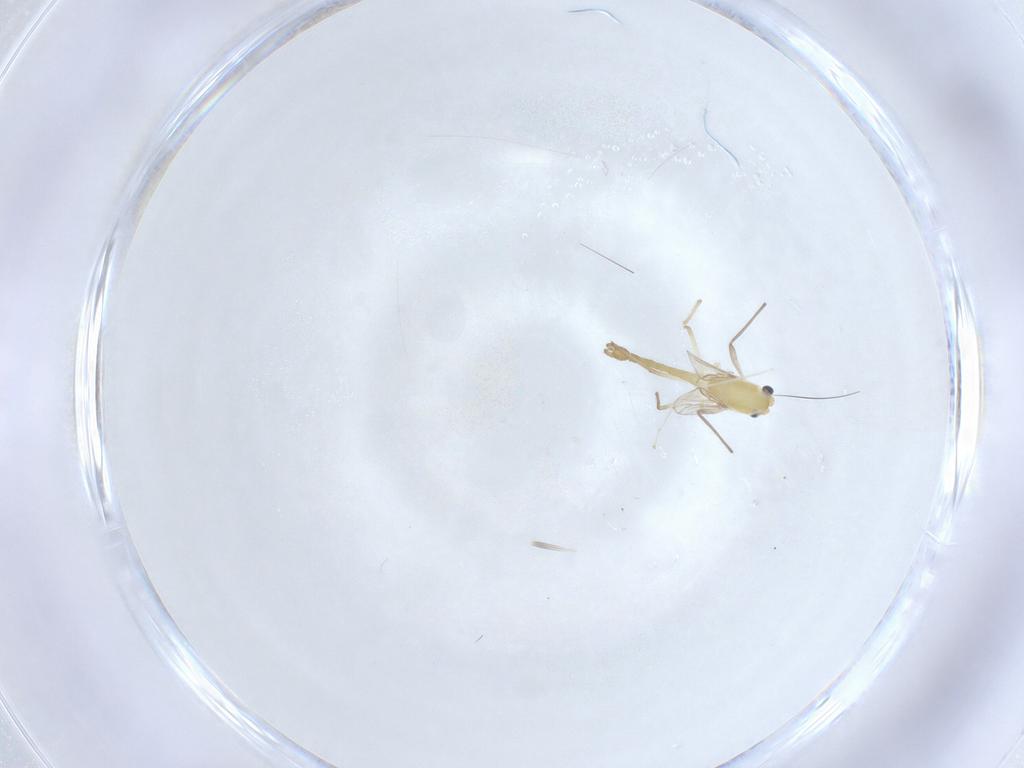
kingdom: Animalia
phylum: Arthropoda
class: Insecta
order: Diptera
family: Chironomidae
